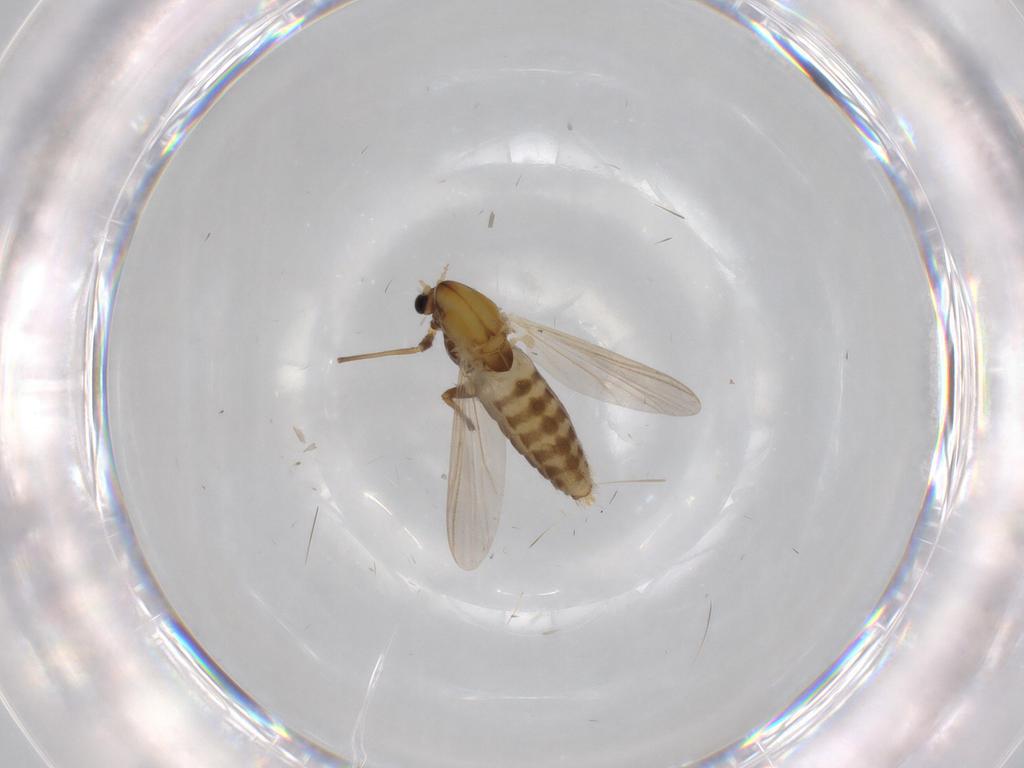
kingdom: Animalia
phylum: Arthropoda
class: Insecta
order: Diptera
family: Chironomidae
